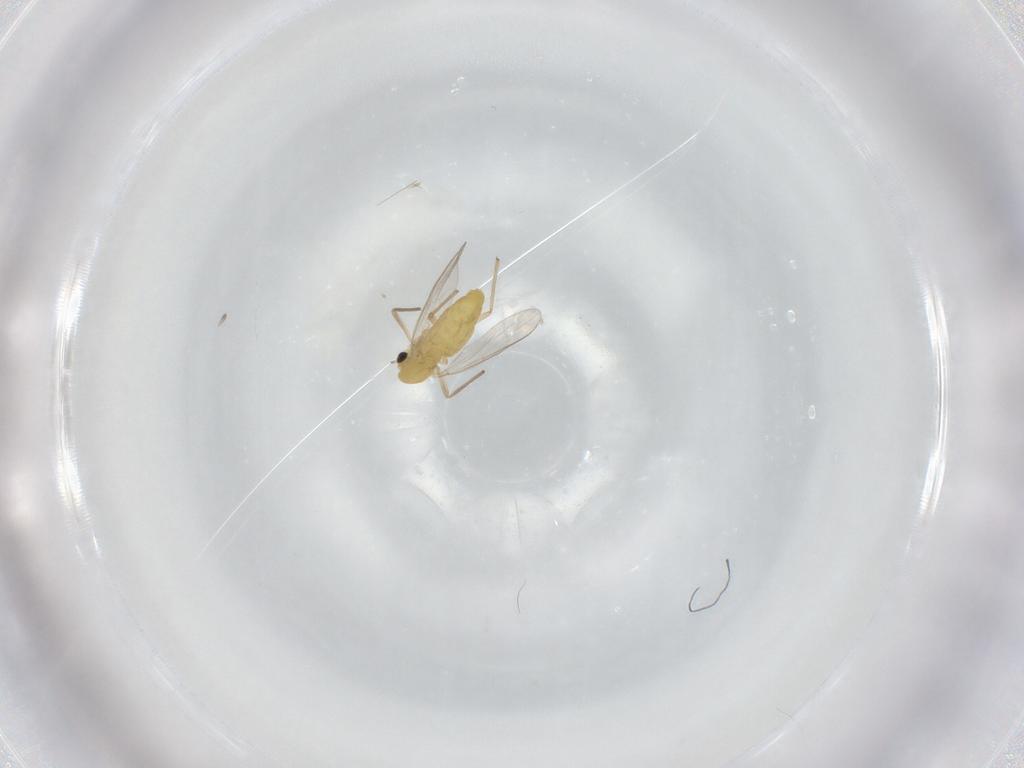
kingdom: Animalia
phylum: Arthropoda
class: Insecta
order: Diptera
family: Chironomidae
